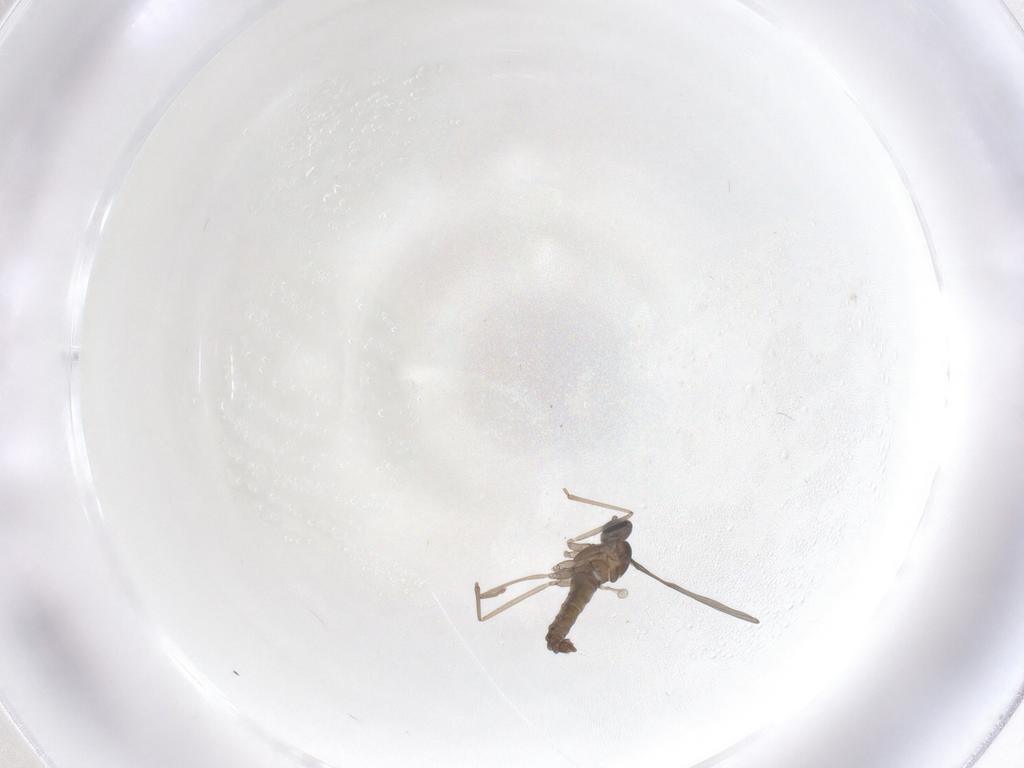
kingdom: Animalia
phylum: Arthropoda
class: Insecta
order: Diptera
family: Cecidomyiidae
